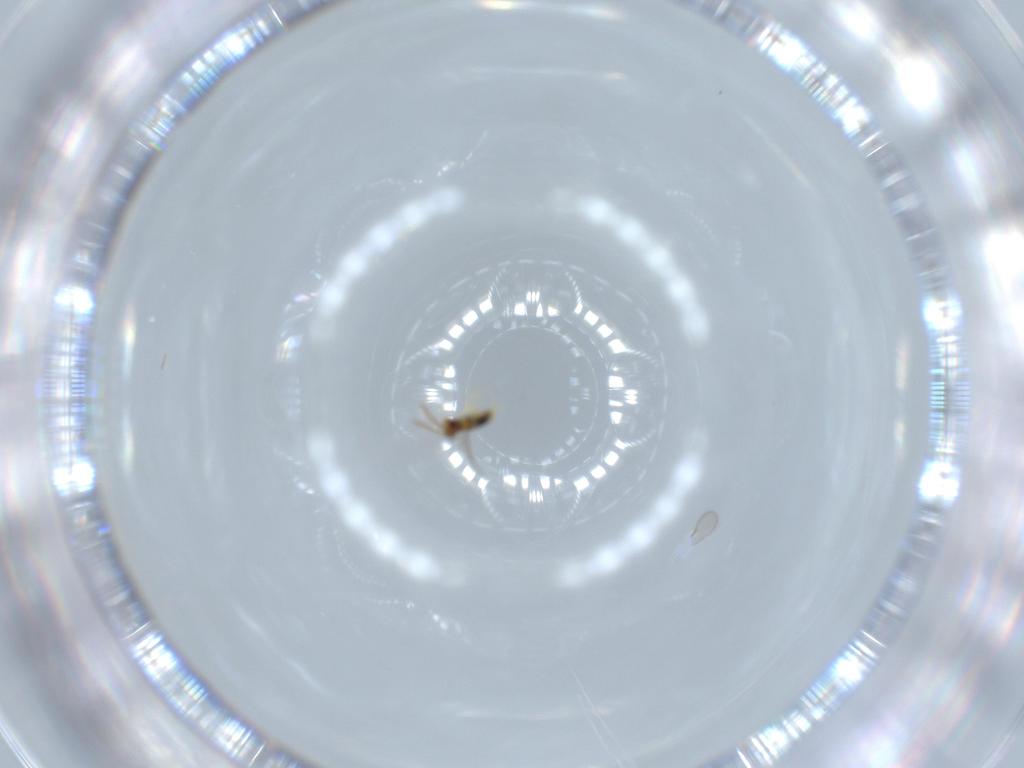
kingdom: Animalia
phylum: Arthropoda
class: Insecta
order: Hymenoptera
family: Aphelinidae
